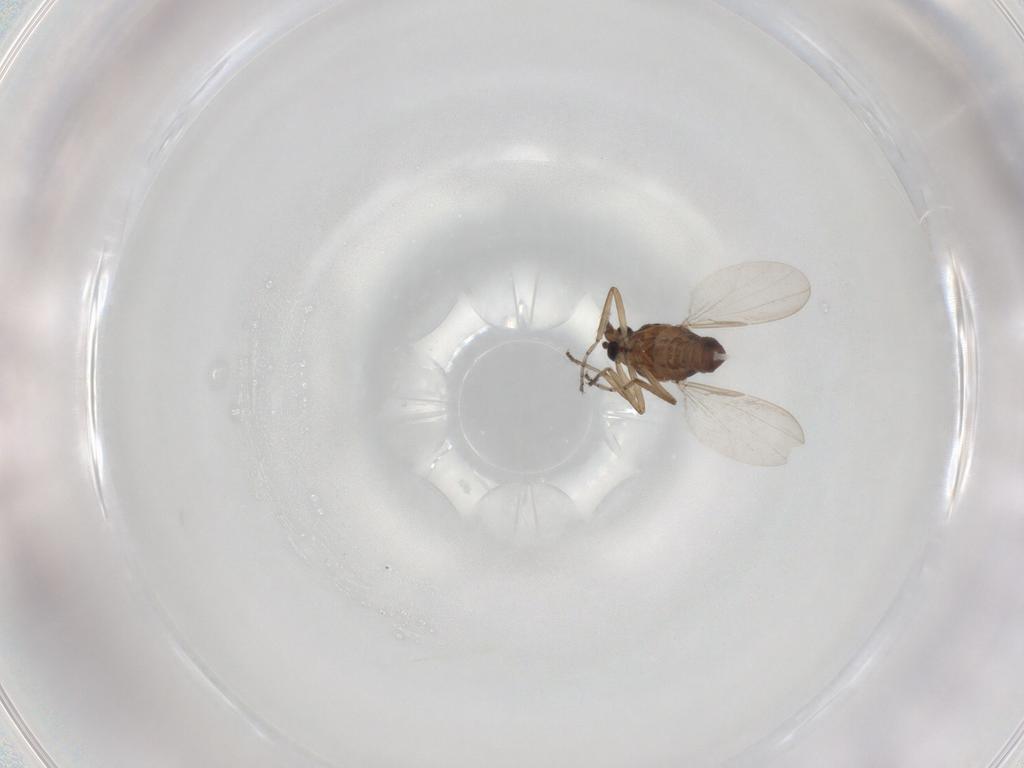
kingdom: Animalia
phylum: Arthropoda
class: Insecta
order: Diptera
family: Ceratopogonidae
